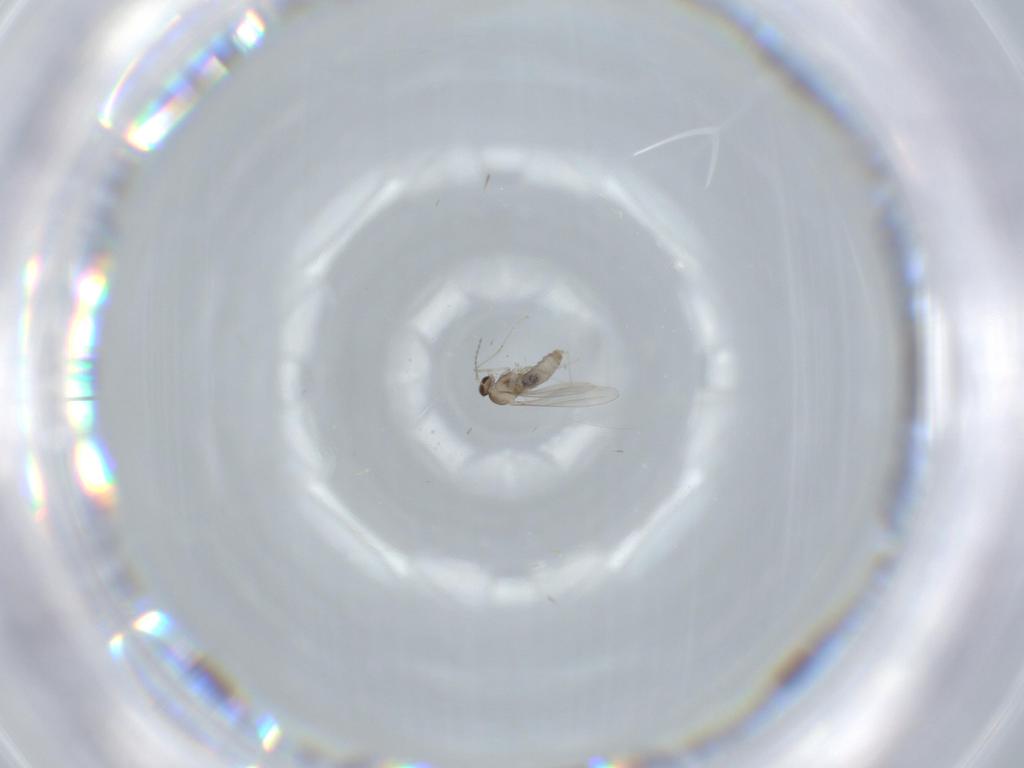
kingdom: Animalia
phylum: Arthropoda
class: Insecta
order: Diptera
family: Cecidomyiidae
